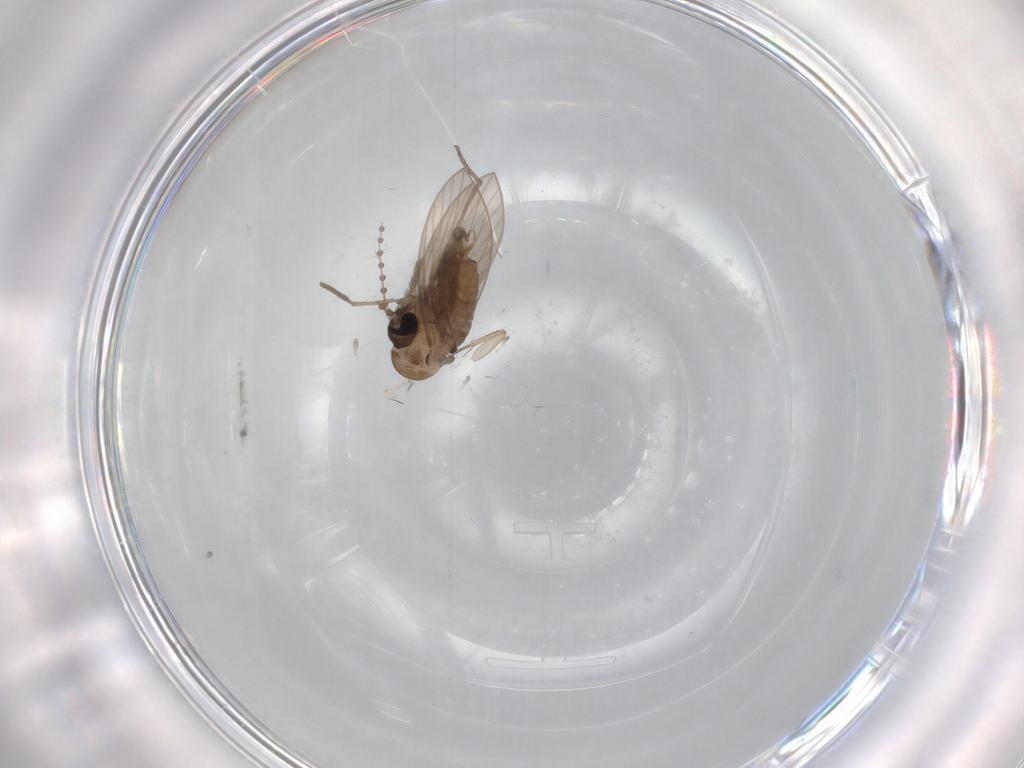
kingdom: Animalia
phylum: Arthropoda
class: Insecta
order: Diptera
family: Phoridae
